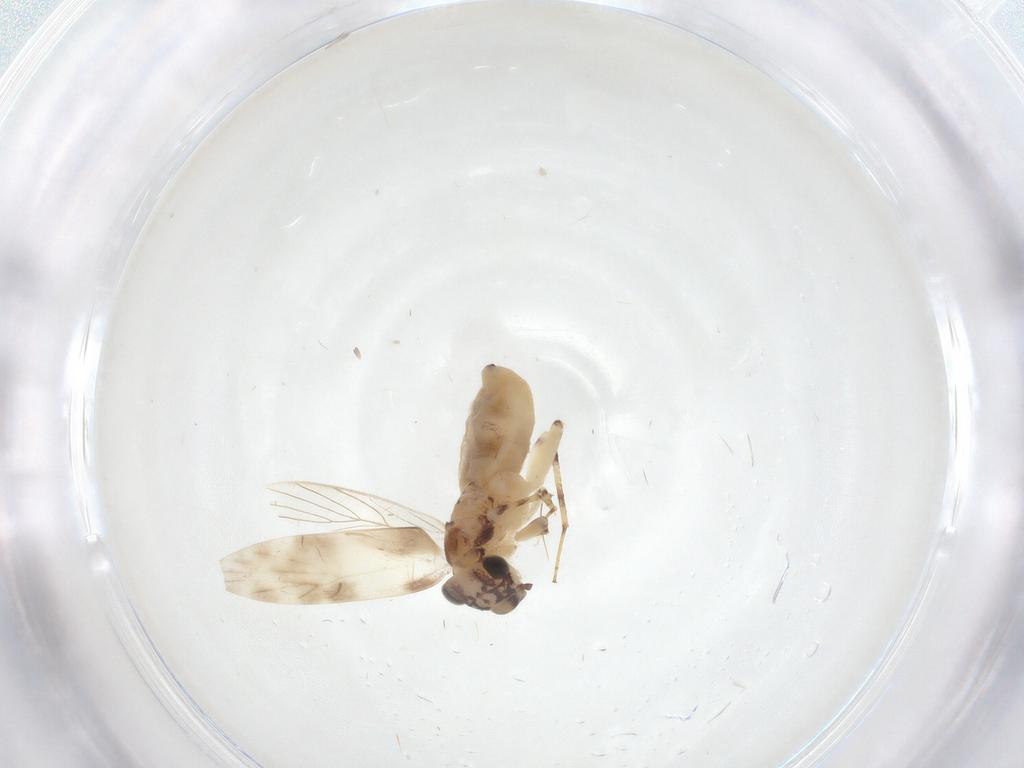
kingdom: Animalia
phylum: Arthropoda
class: Insecta
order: Psocodea
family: Lepidopsocidae
